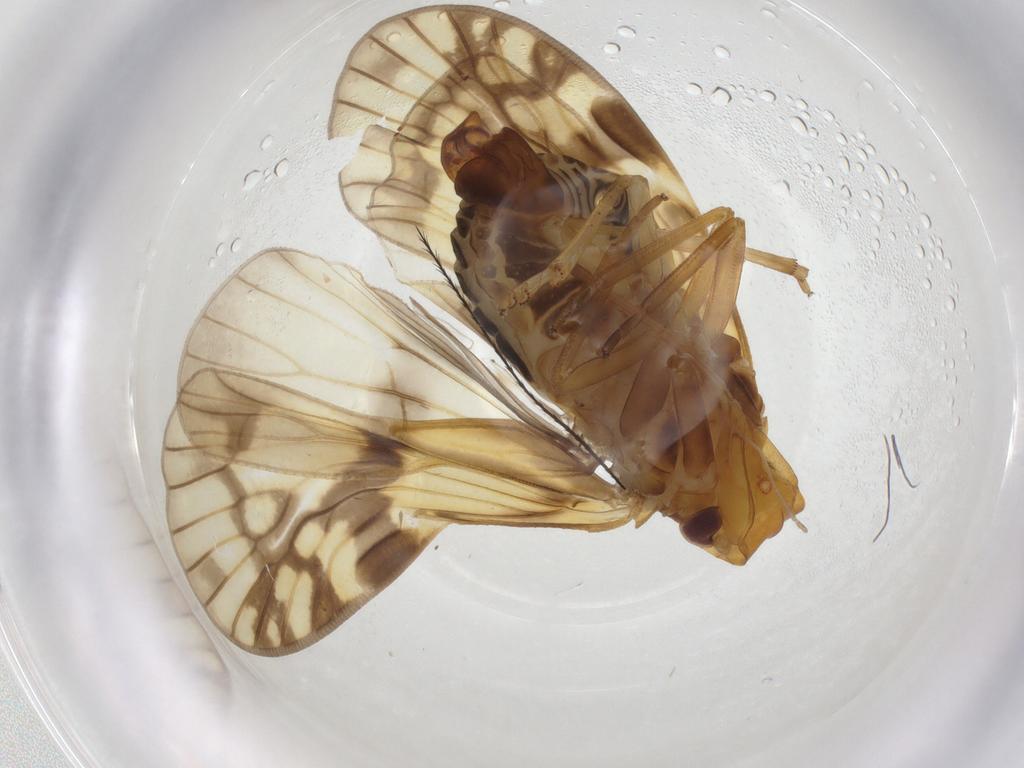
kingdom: Animalia
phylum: Arthropoda
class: Insecta
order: Hemiptera
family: Cixiidae
